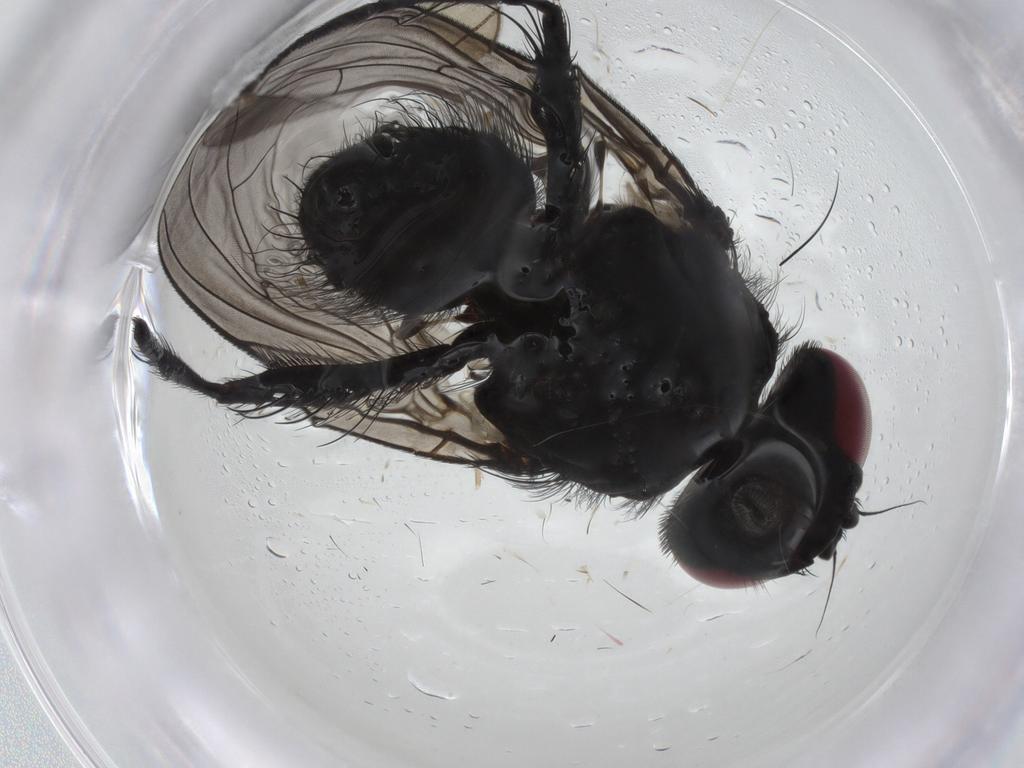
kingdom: Animalia
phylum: Arthropoda
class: Insecta
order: Diptera
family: Fannia
